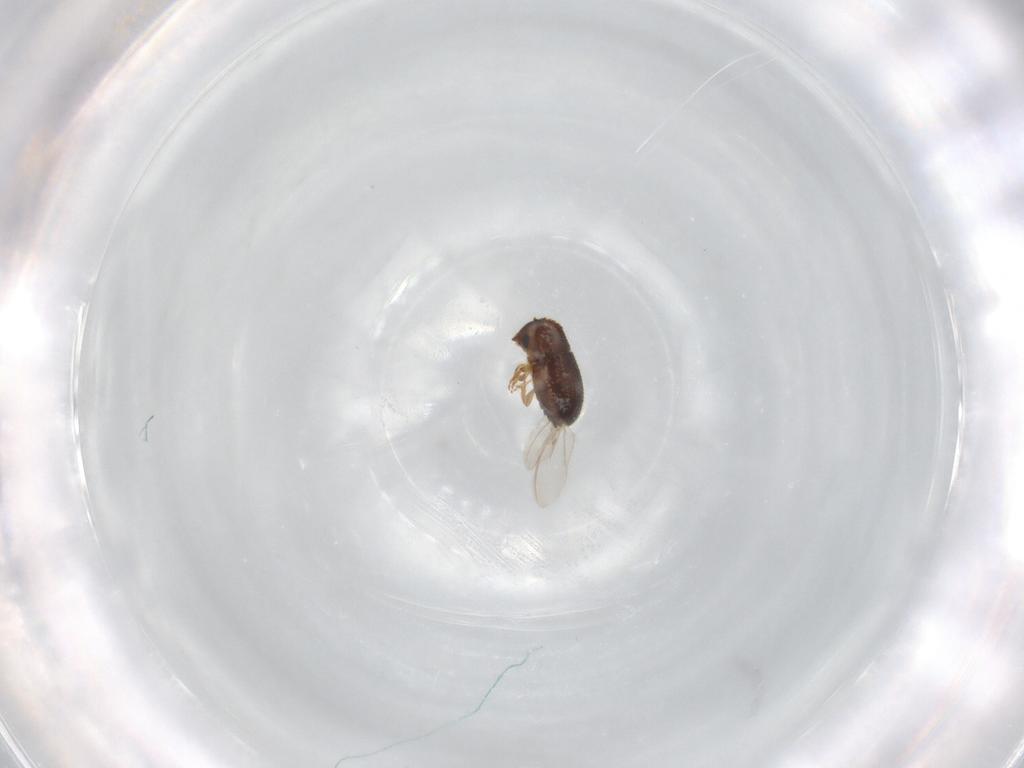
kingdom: Animalia
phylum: Arthropoda
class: Insecta
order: Coleoptera
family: Curculionidae
